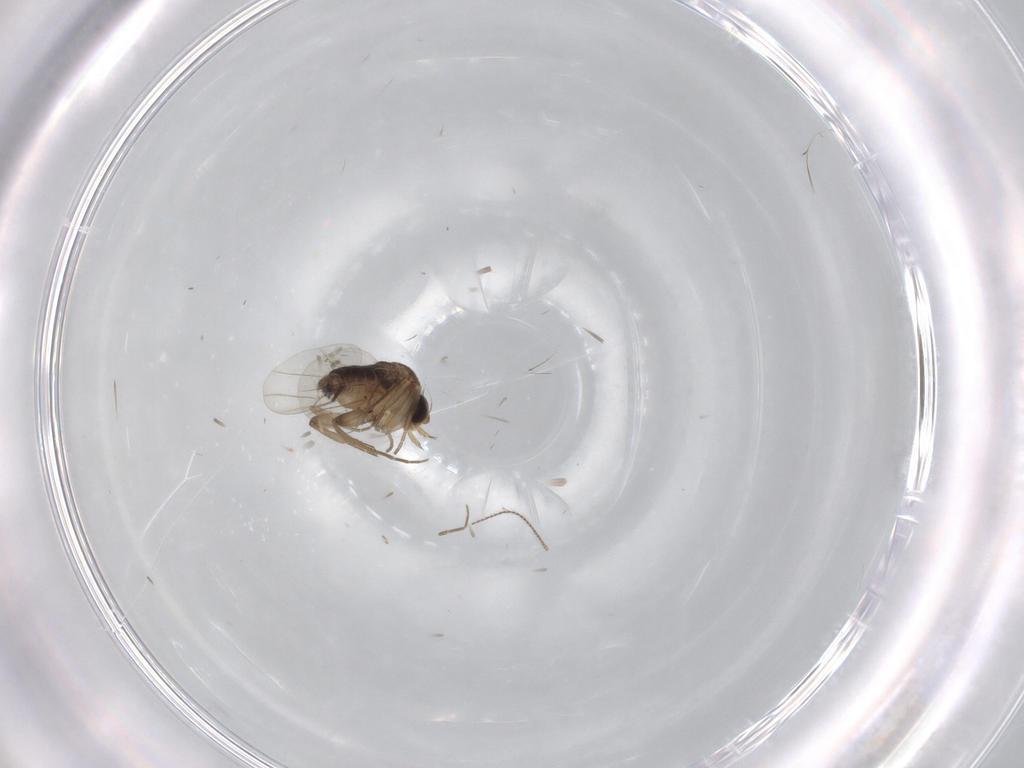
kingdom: Animalia
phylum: Arthropoda
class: Insecta
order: Diptera
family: Phoridae
